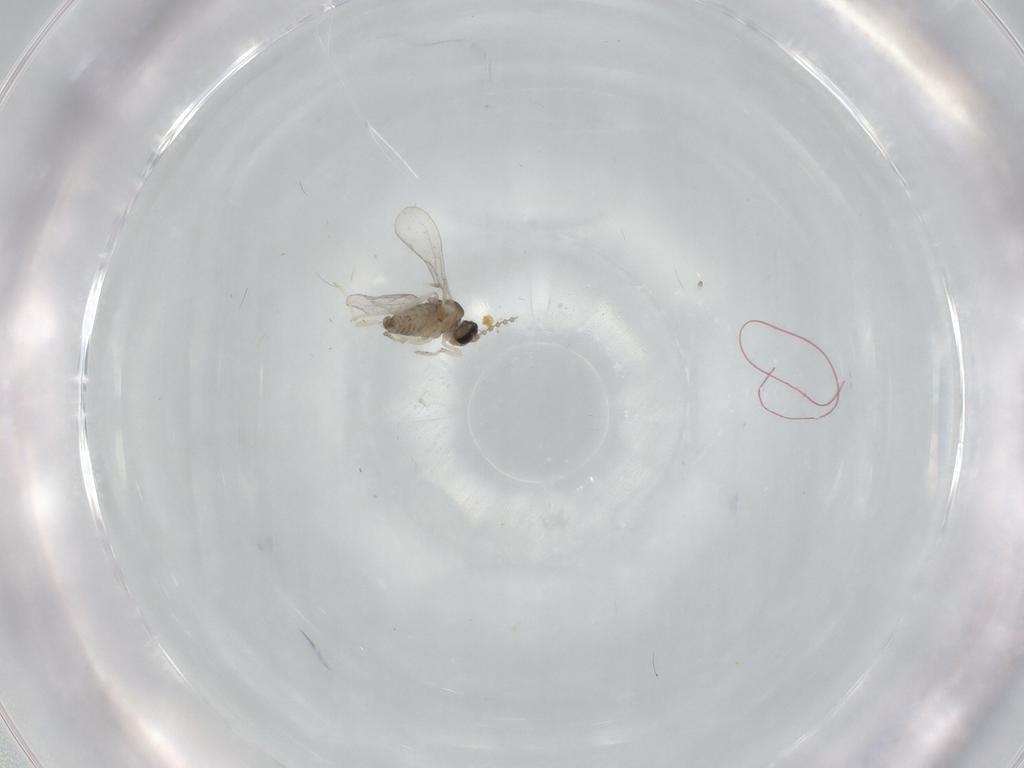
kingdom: Animalia
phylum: Arthropoda
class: Insecta
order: Diptera
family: Cecidomyiidae
